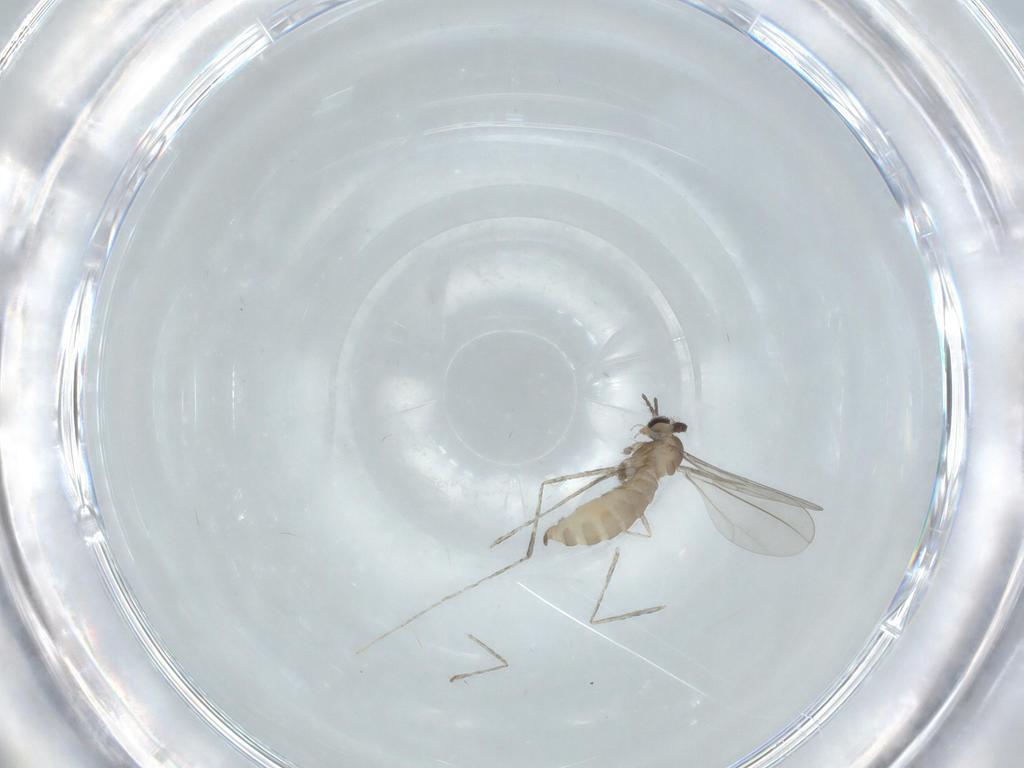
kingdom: Animalia
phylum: Arthropoda
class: Insecta
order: Diptera
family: Cecidomyiidae
